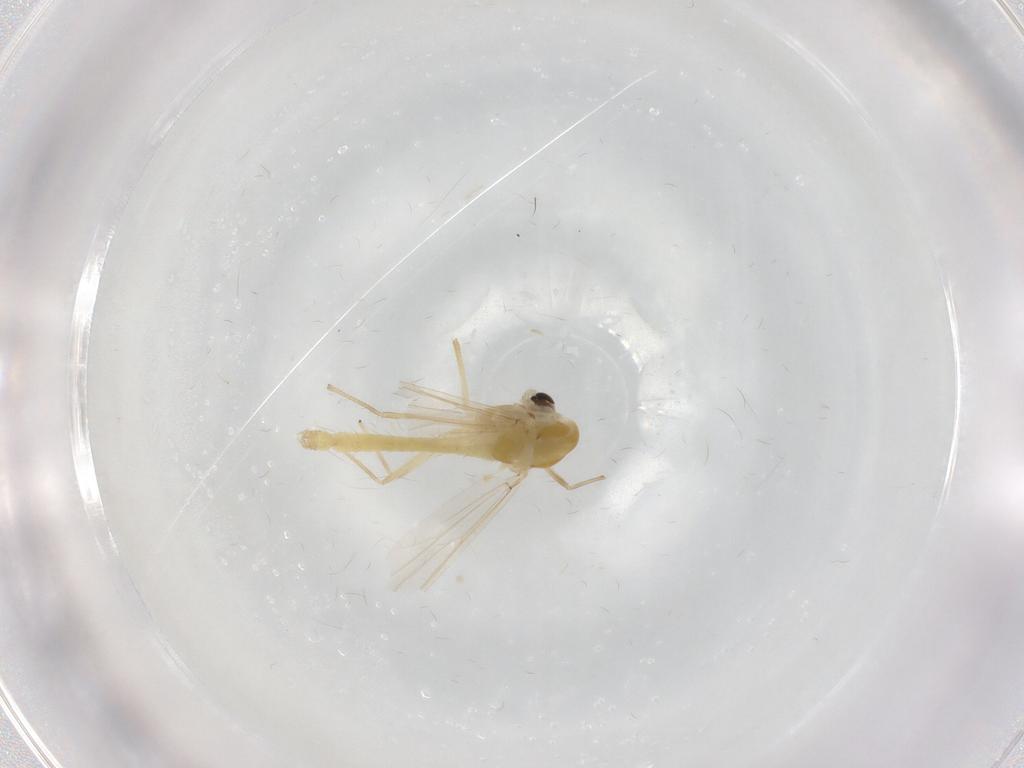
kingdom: Animalia
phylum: Arthropoda
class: Insecta
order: Diptera
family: Chironomidae
